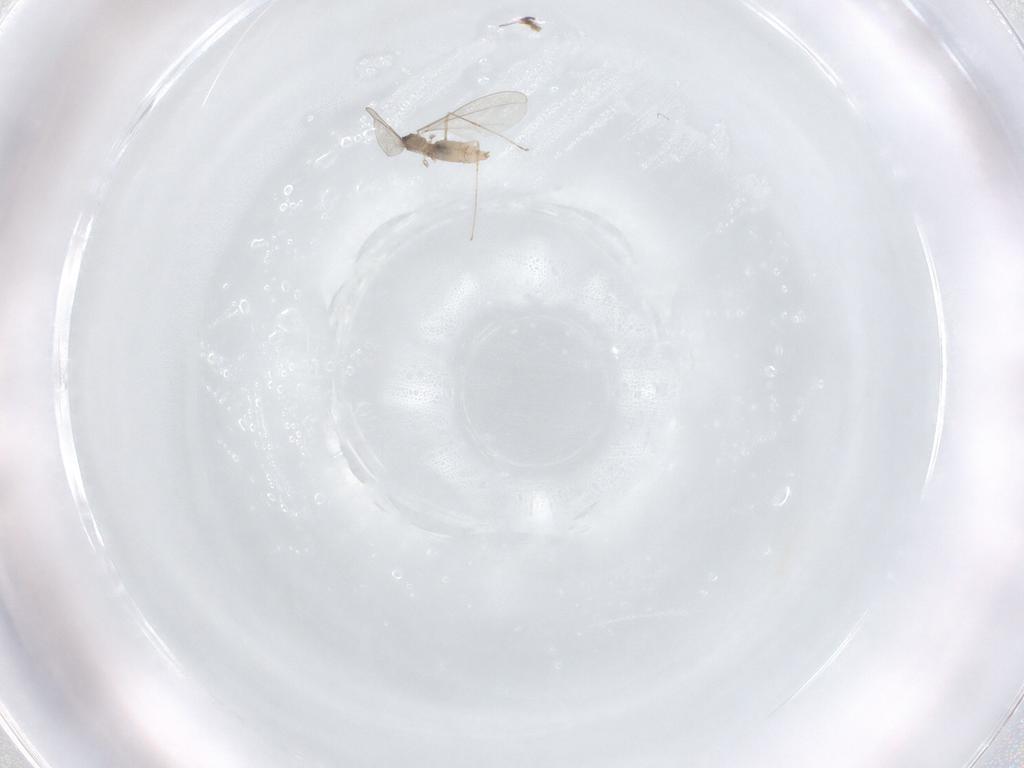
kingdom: Animalia
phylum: Arthropoda
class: Insecta
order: Diptera
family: Cecidomyiidae
